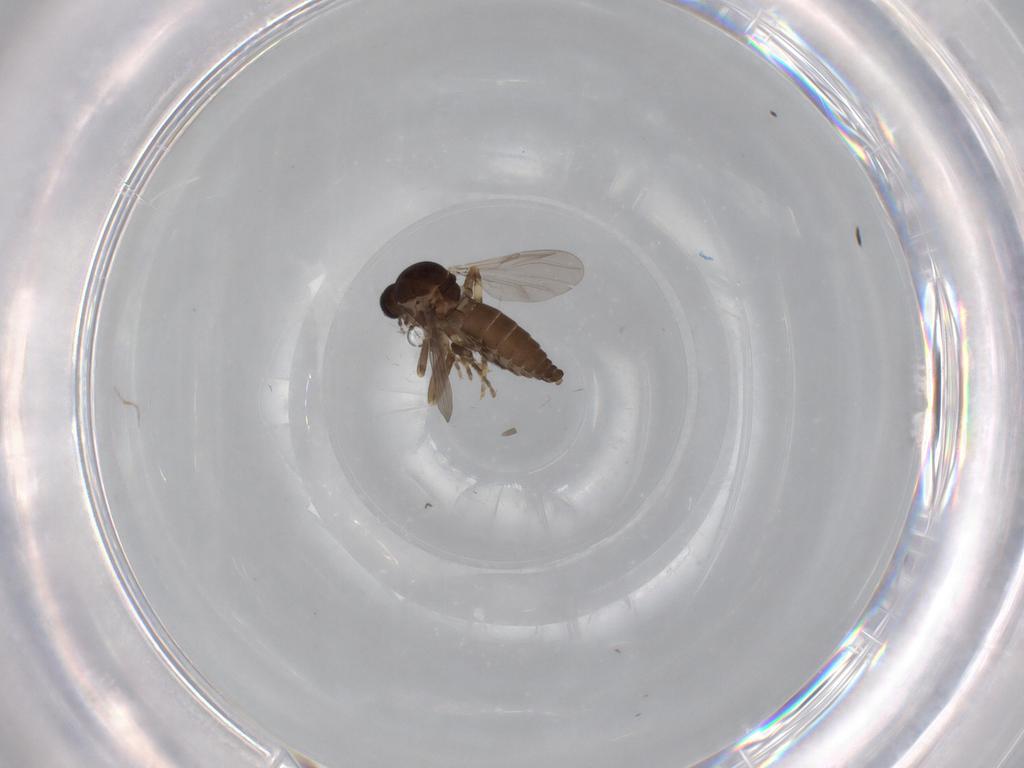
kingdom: Animalia
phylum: Arthropoda
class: Insecta
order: Diptera
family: Ceratopogonidae
